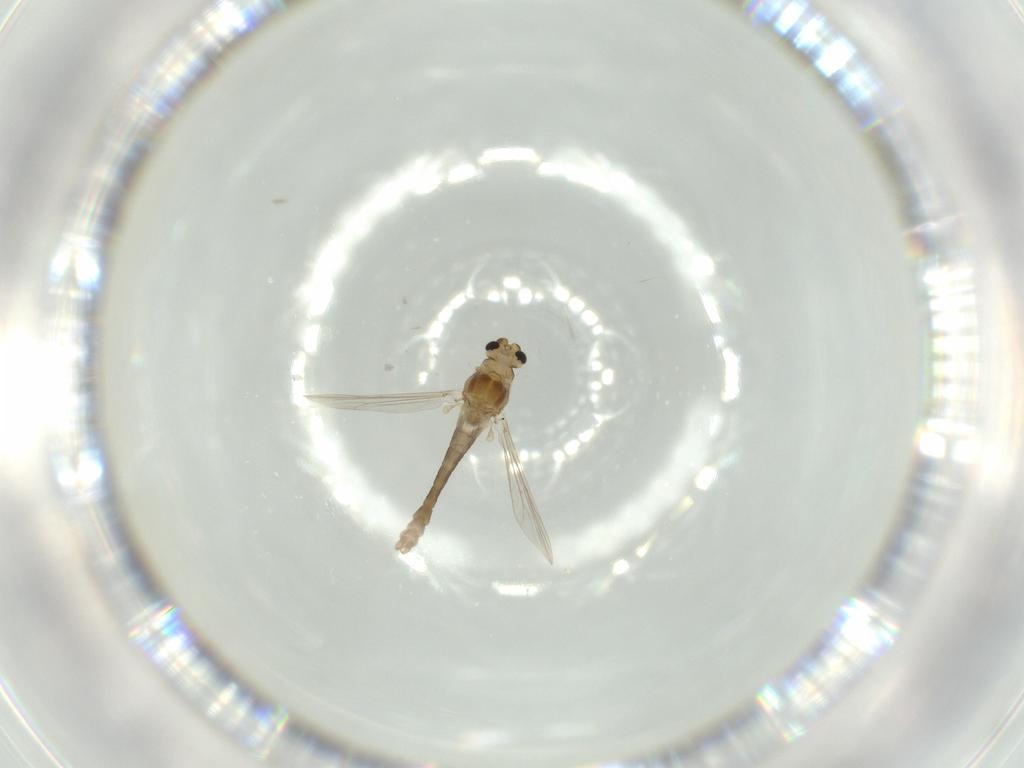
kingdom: Animalia
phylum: Arthropoda
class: Insecta
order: Diptera
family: Chironomidae
